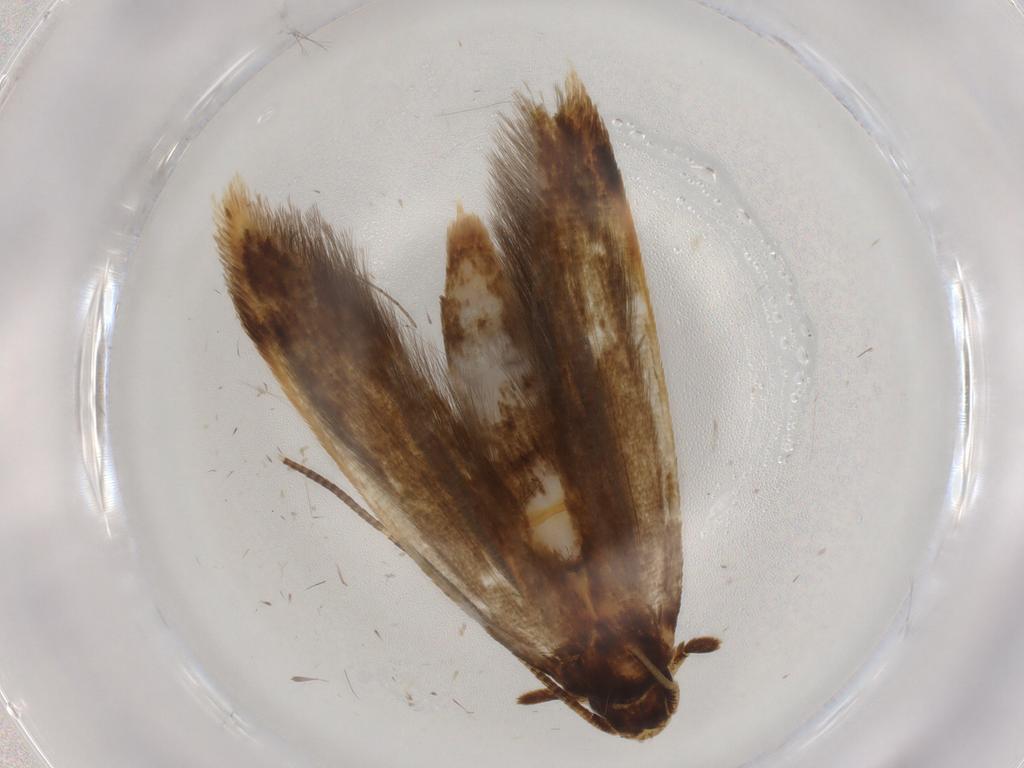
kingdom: Animalia
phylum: Arthropoda
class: Insecta
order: Lepidoptera
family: Tineidae
